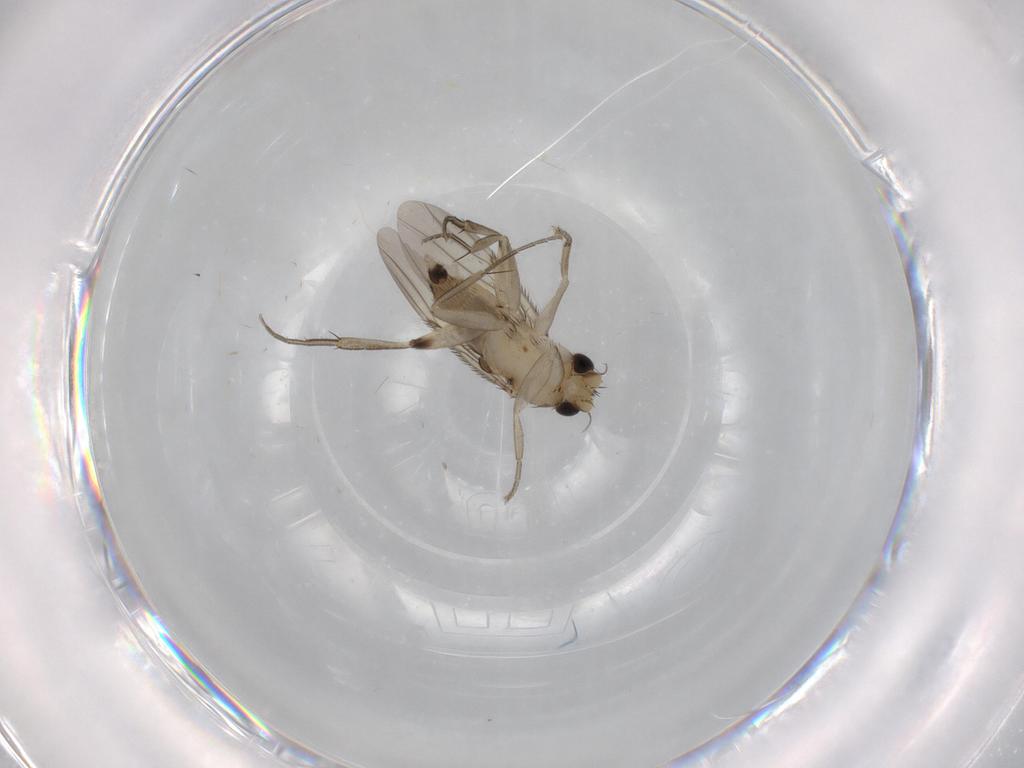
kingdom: Animalia
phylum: Arthropoda
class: Insecta
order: Diptera
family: Phoridae
